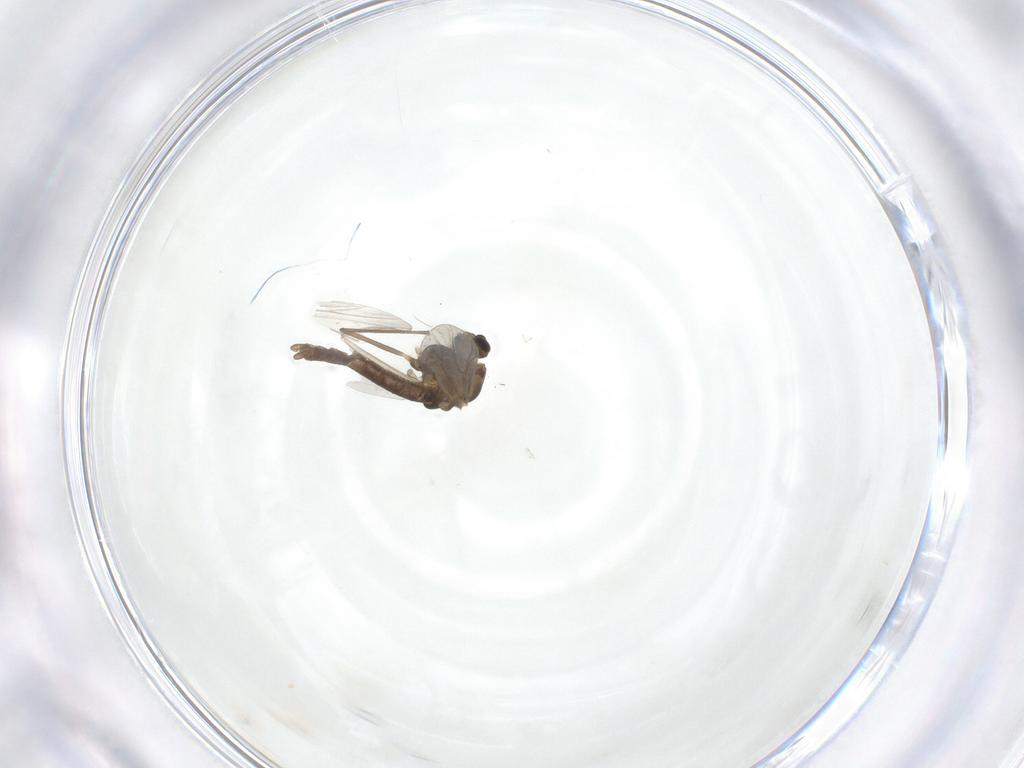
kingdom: Animalia
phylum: Arthropoda
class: Insecta
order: Diptera
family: Chironomidae
